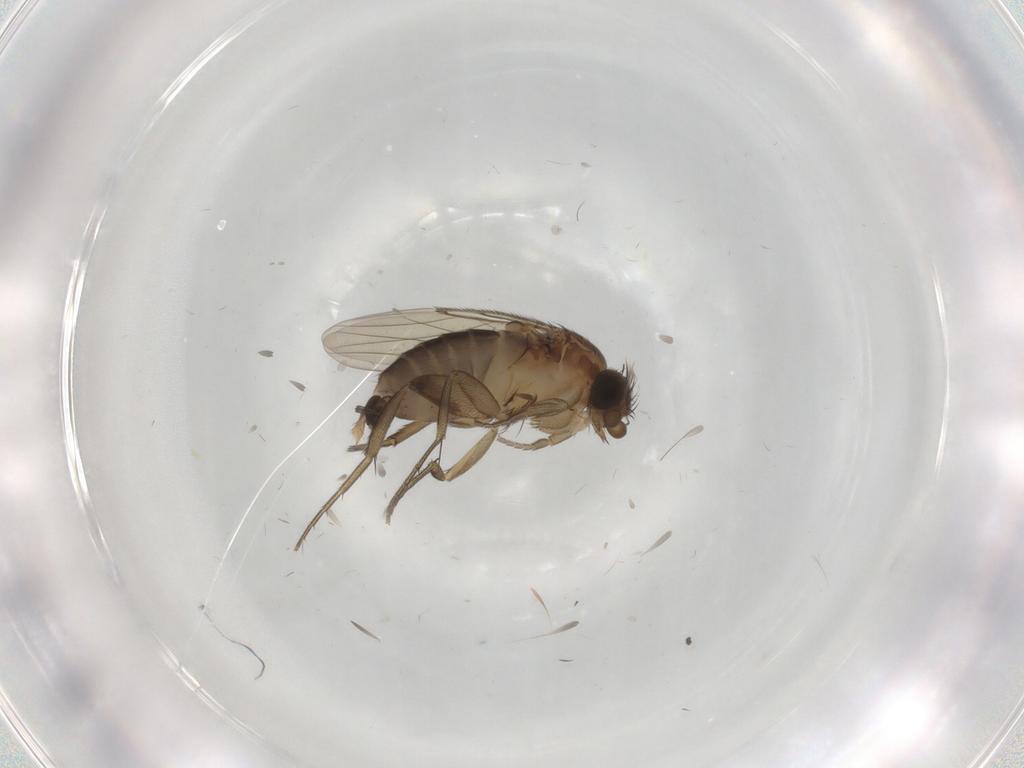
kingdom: Animalia
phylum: Arthropoda
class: Insecta
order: Diptera
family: Sciaridae
